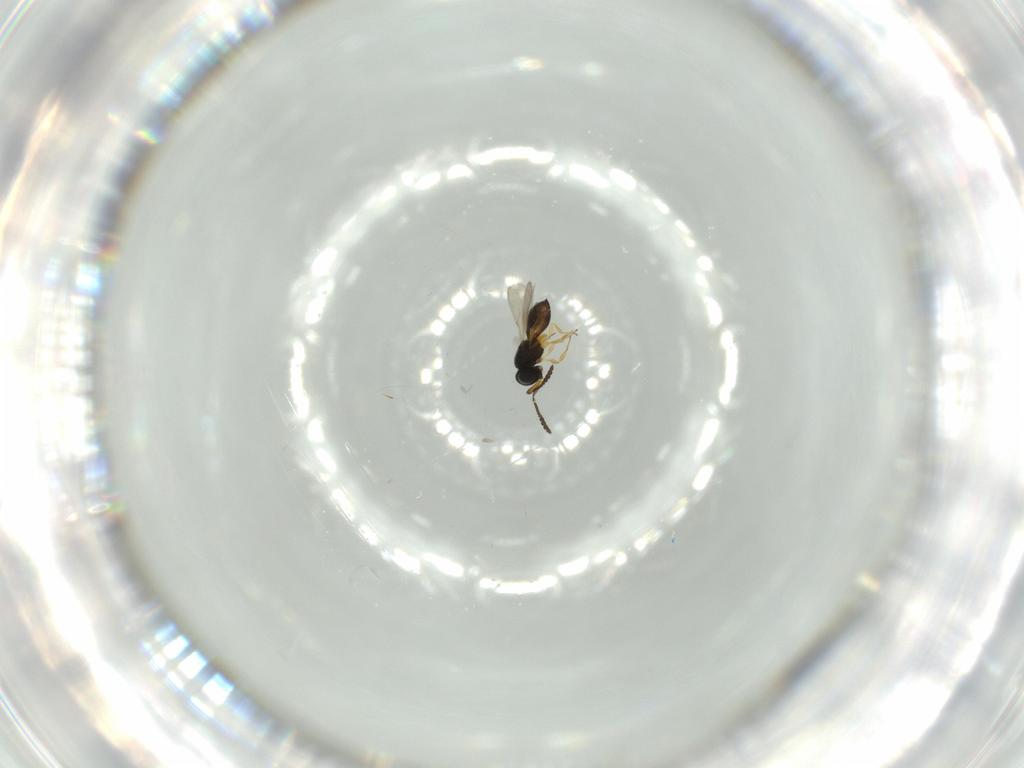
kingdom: Animalia
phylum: Arthropoda
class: Insecta
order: Hymenoptera
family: Scelionidae
